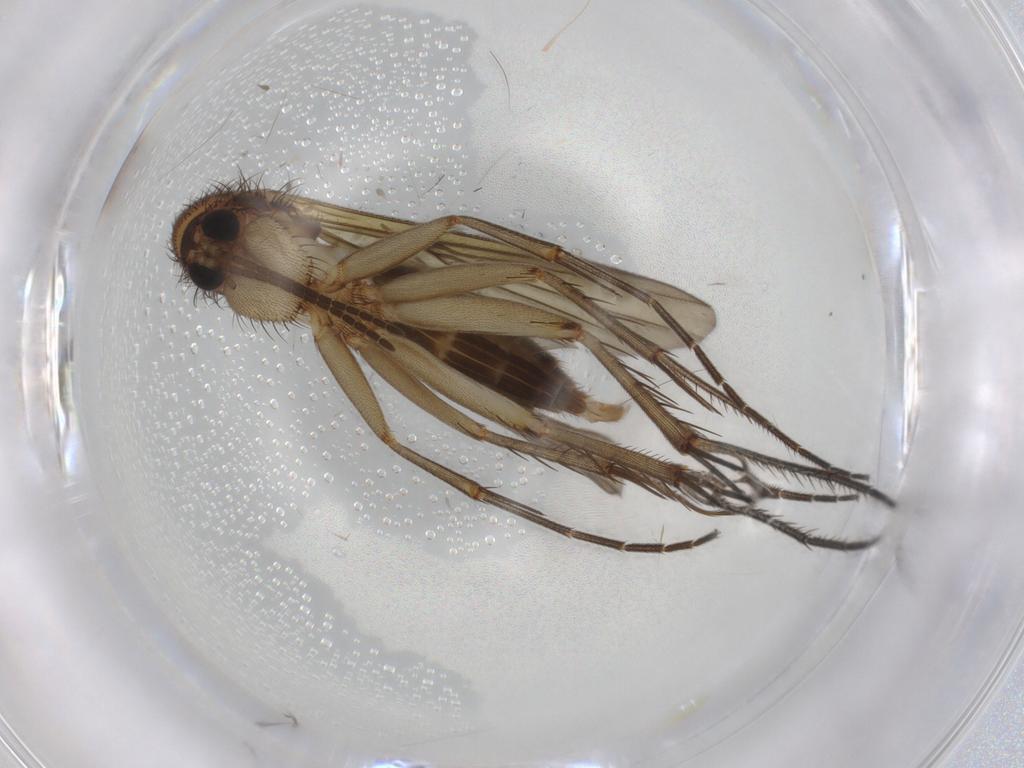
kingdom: Animalia
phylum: Arthropoda
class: Insecta
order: Diptera
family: Mycetophilidae
